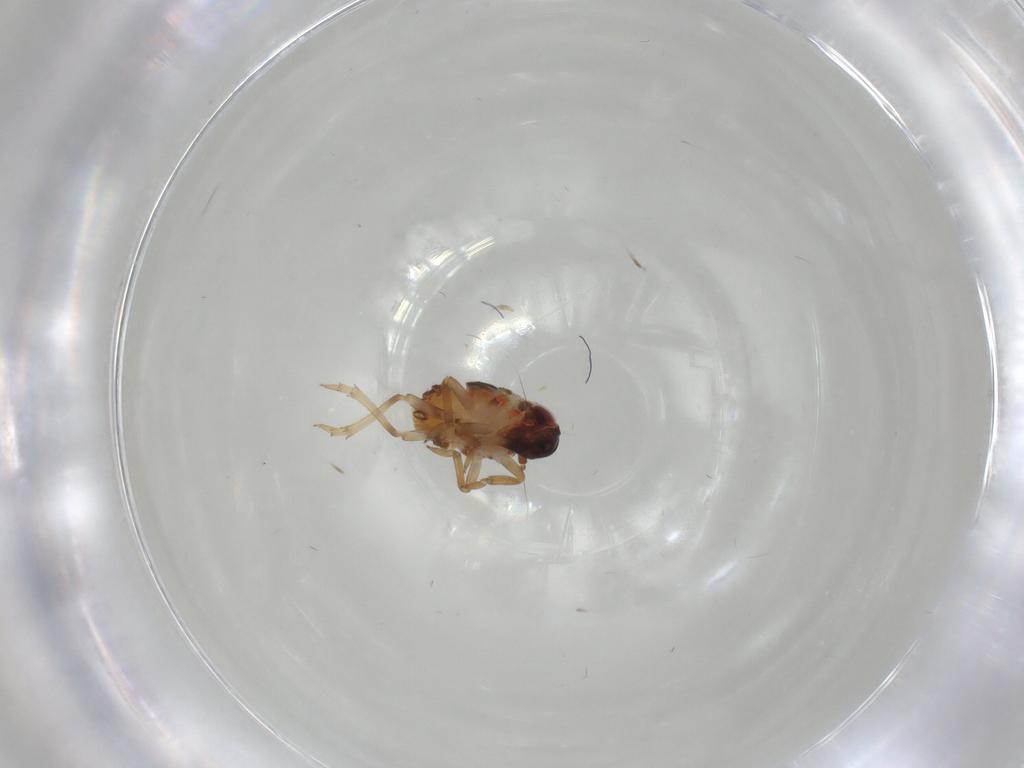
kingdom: Animalia
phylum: Arthropoda
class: Insecta
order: Hemiptera
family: Issidae
